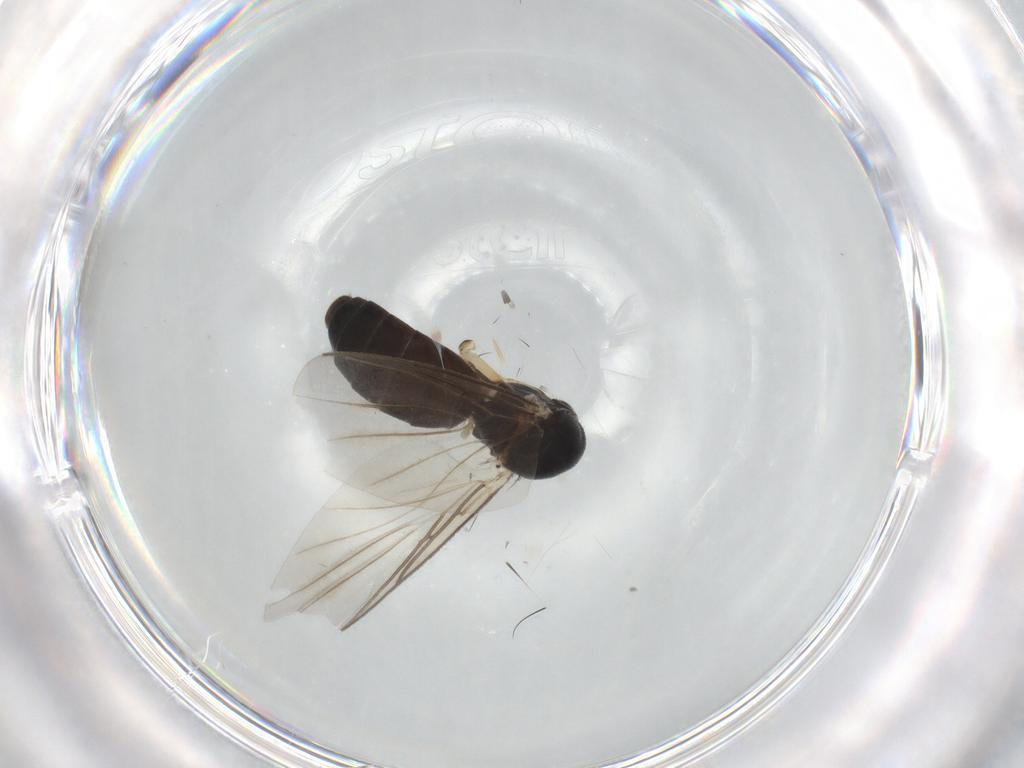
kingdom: Animalia
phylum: Arthropoda
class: Insecta
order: Diptera
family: Mycetophilidae
